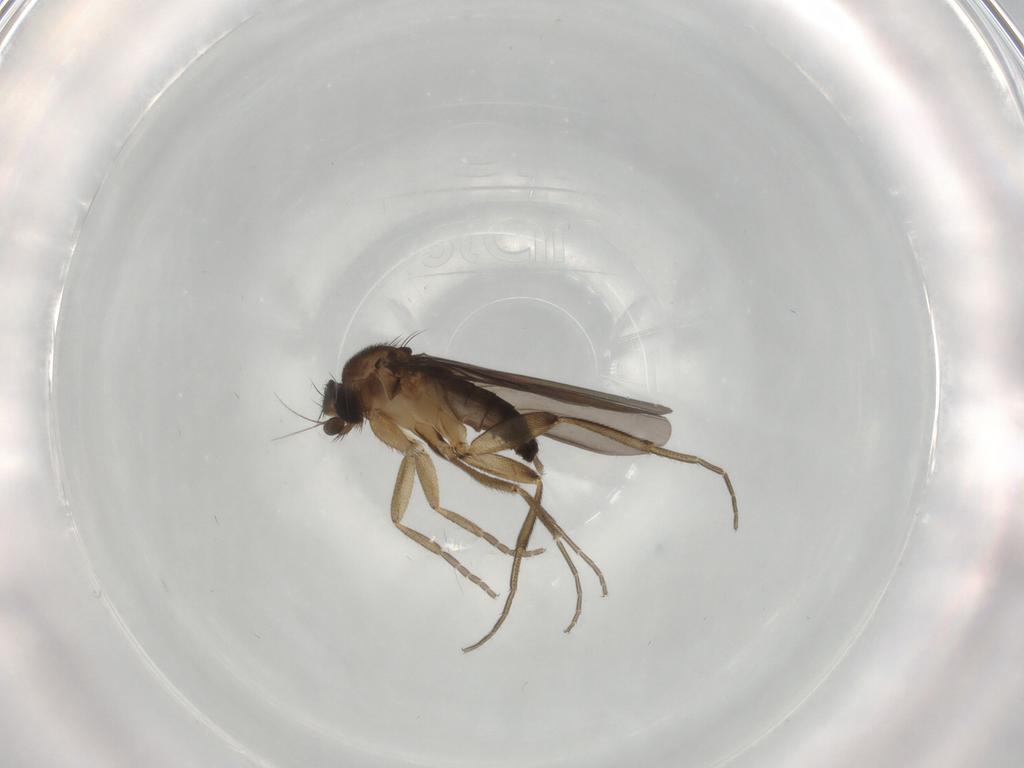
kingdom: Animalia
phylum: Arthropoda
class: Insecta
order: Diptera
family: Phoridae
